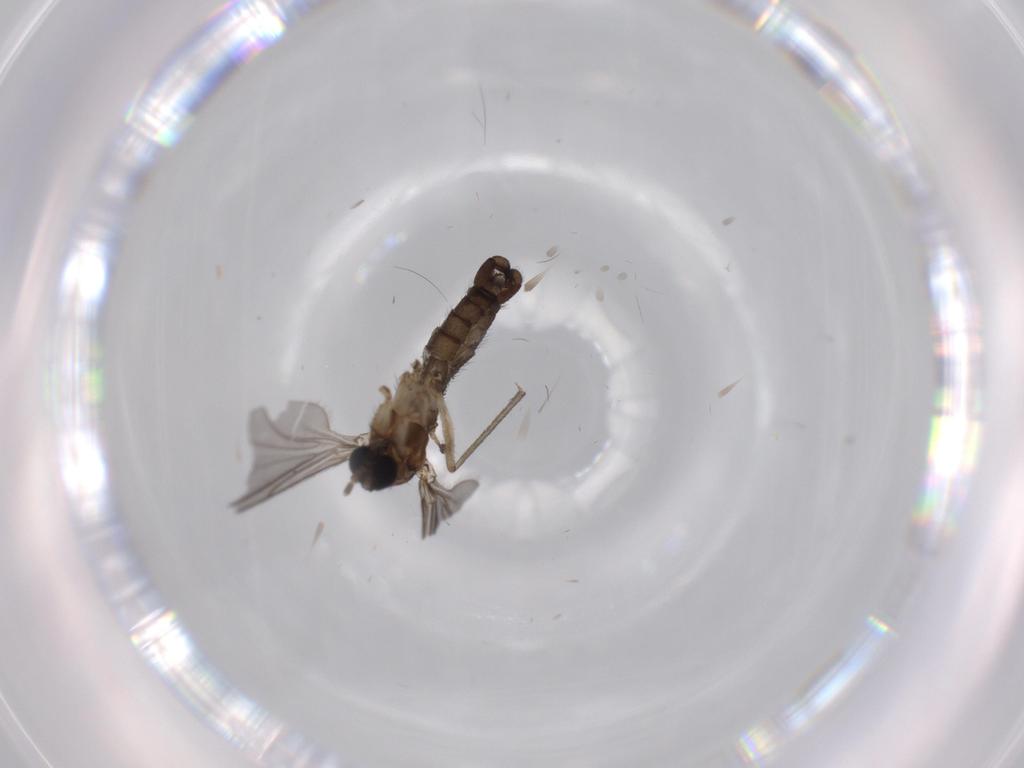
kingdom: Animalia
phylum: Arthropoda
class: Insecta
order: Diptera
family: Sciaridae
